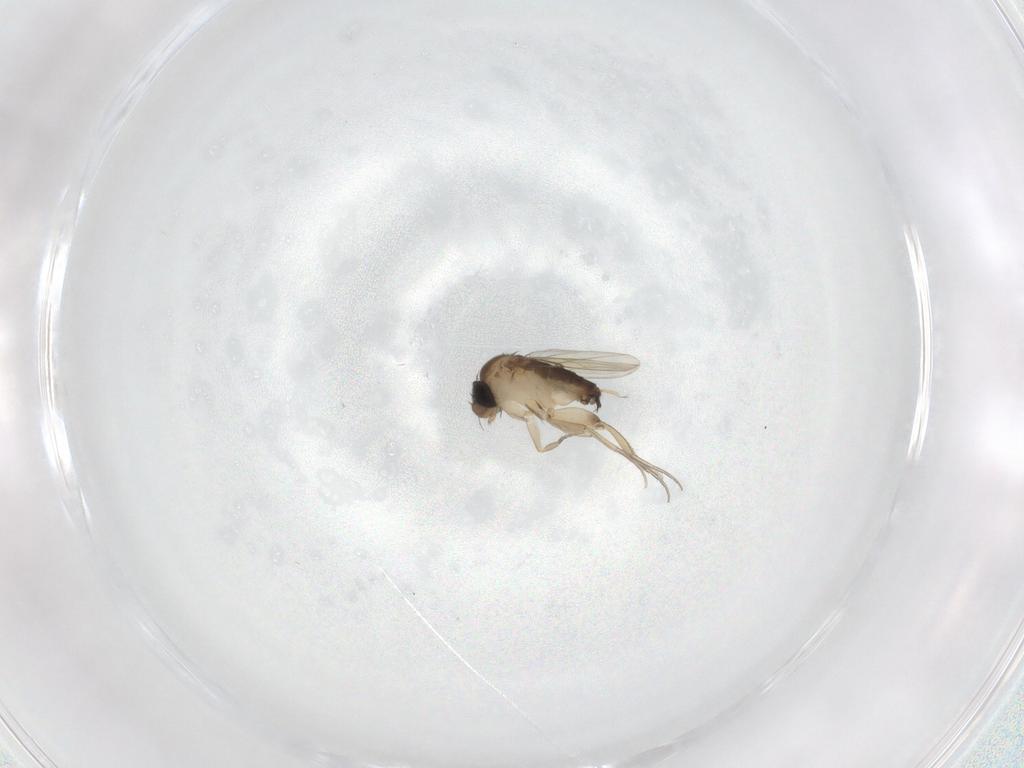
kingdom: Animalia
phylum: Arthropoda
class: Insecta
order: Diptera
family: Phoridae
